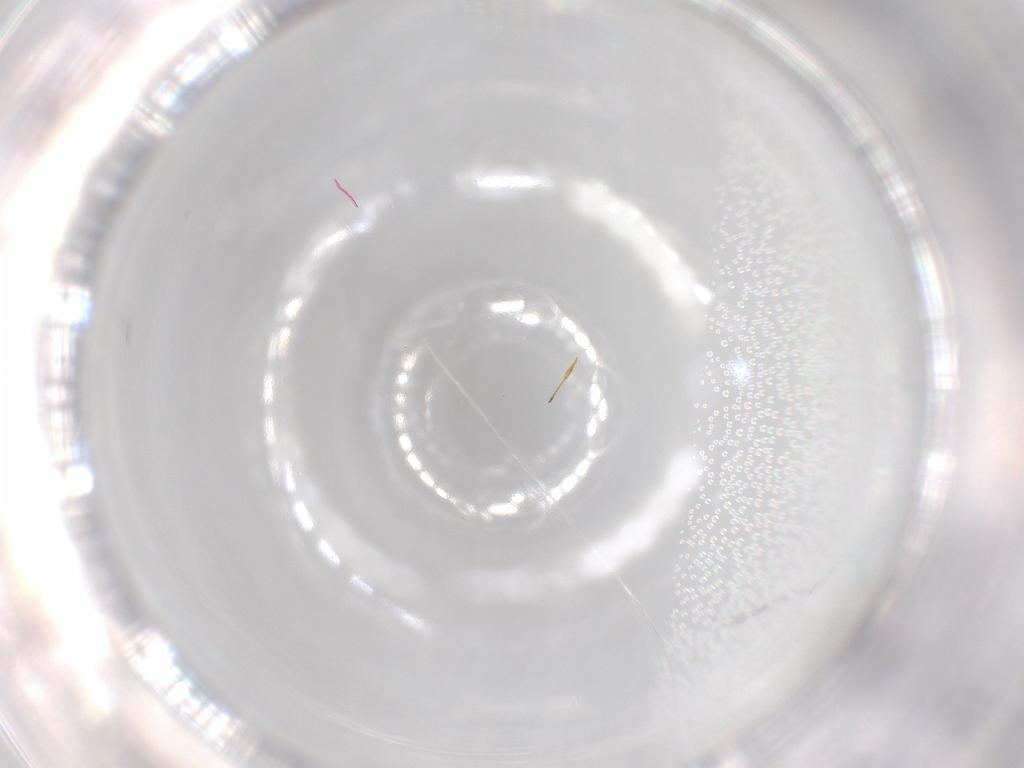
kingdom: Animalia
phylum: Arthropoda
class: Insecta
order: Hymenoptera
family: Figitidae
